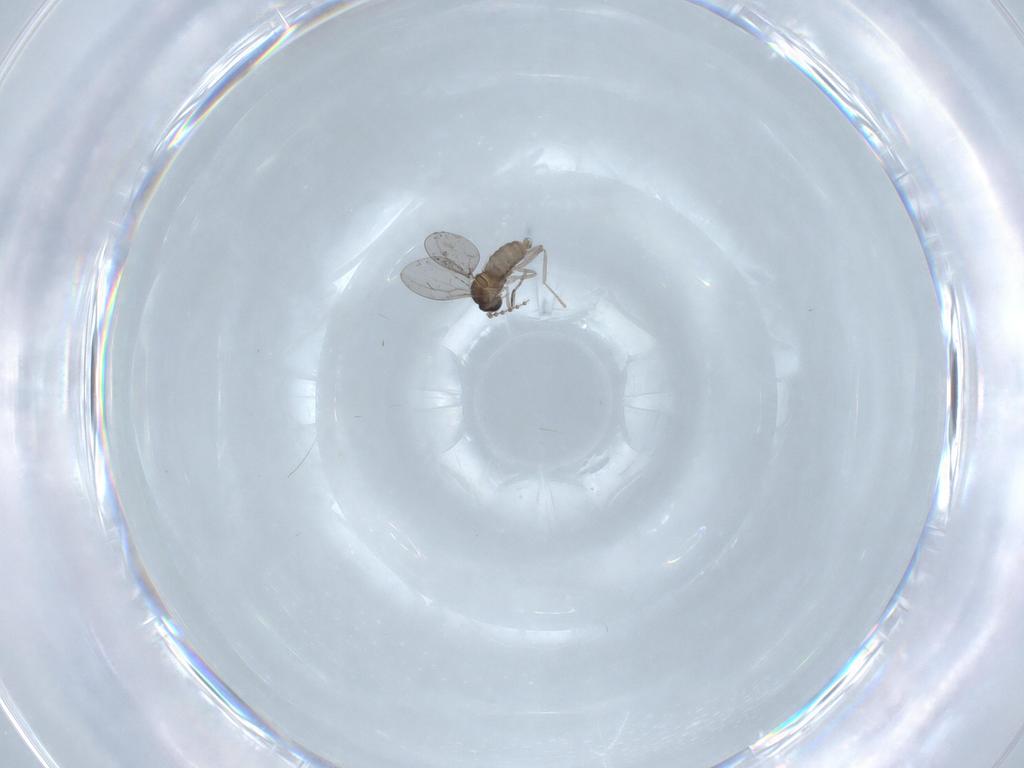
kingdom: Animalia
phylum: Arthropoda
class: Insecta
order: Diptera
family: Cecidomyiidae
